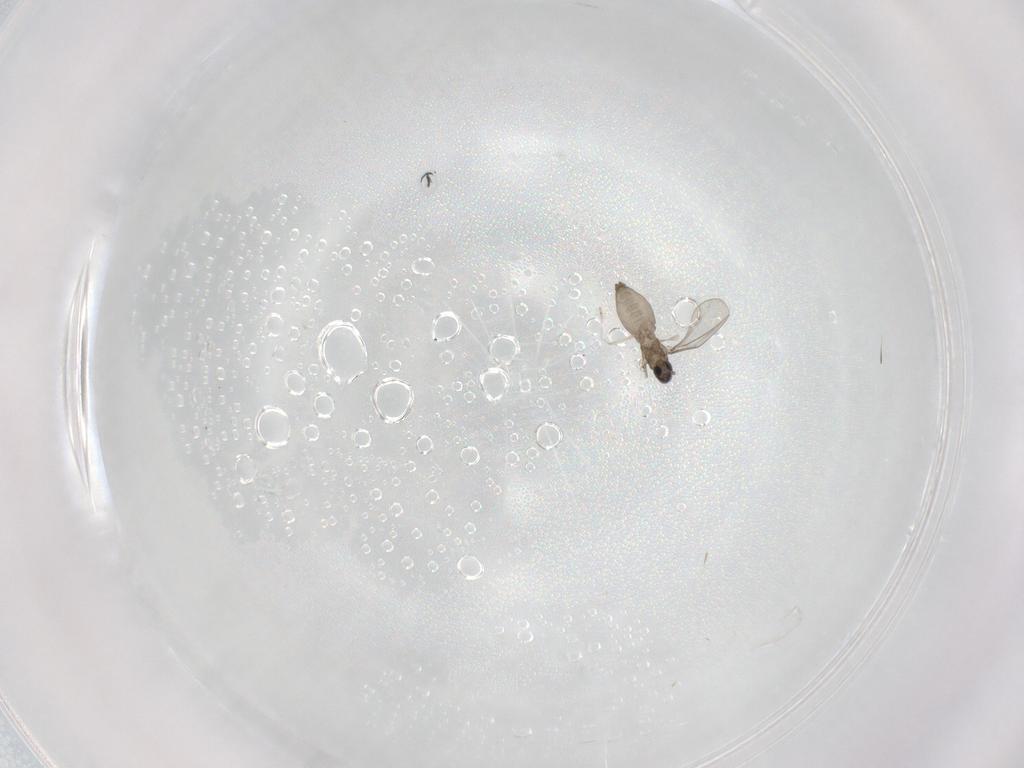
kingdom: Animalia
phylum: Arthropoda
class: Insecta
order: Diptera
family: Cecidomyiidae
